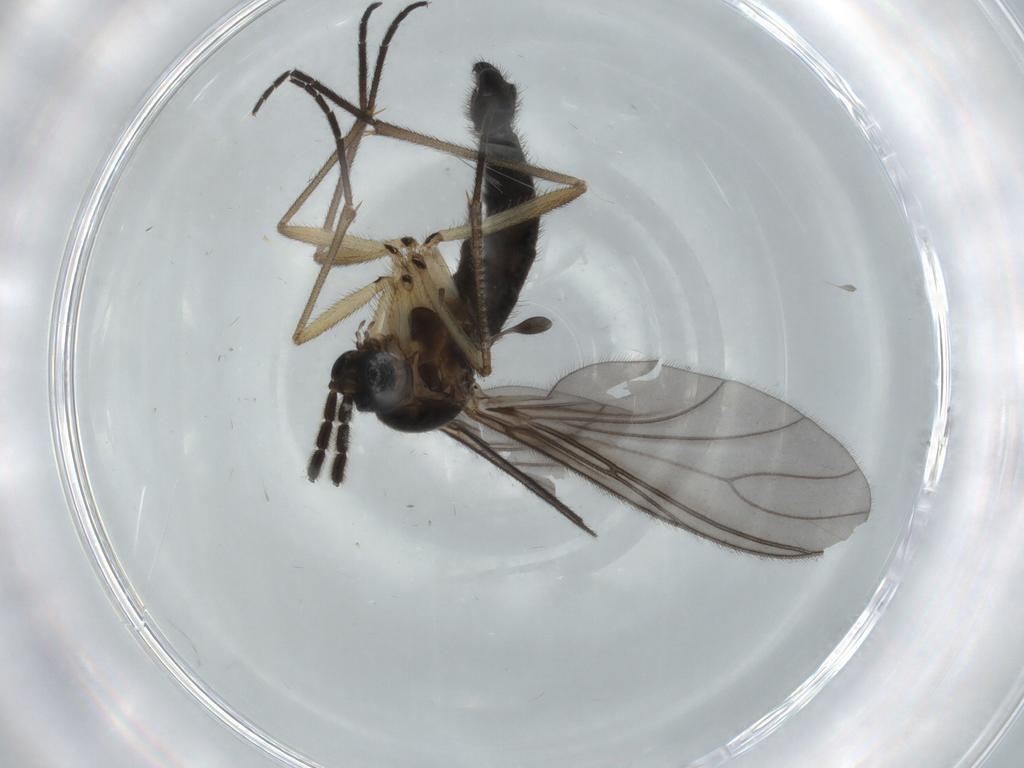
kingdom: Animalia
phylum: Arthropoda
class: Insecta
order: Diptera
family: Sciaridae
